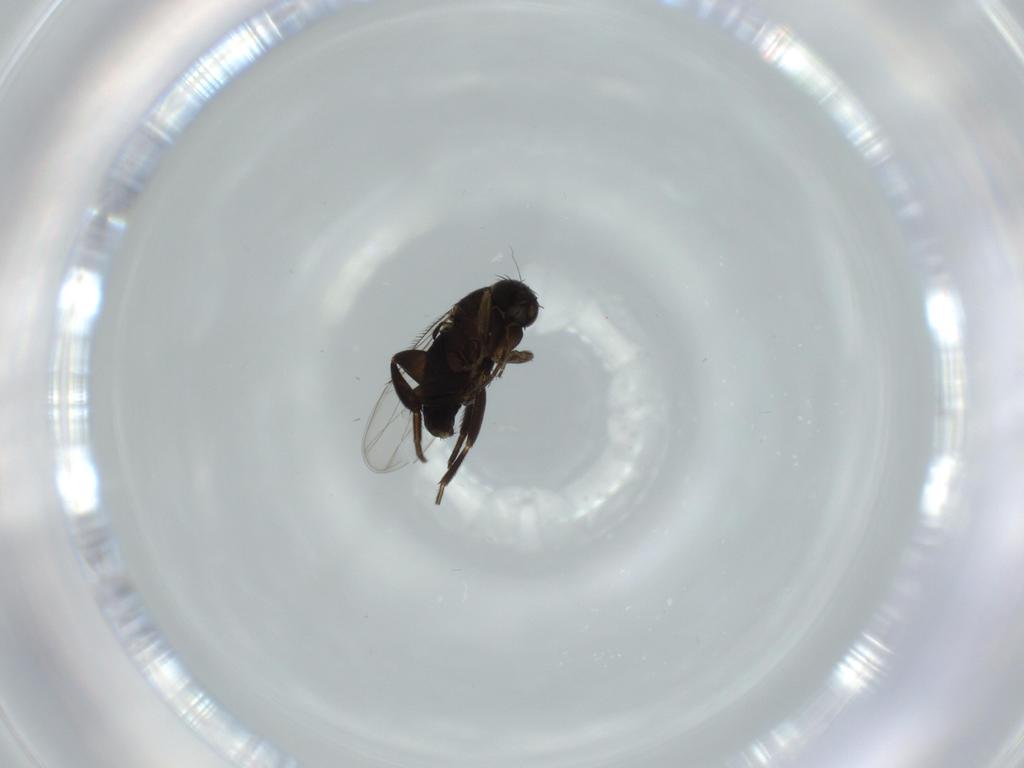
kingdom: Animalia
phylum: Arthropoda
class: Insecta
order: Diptera
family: Phoridae
